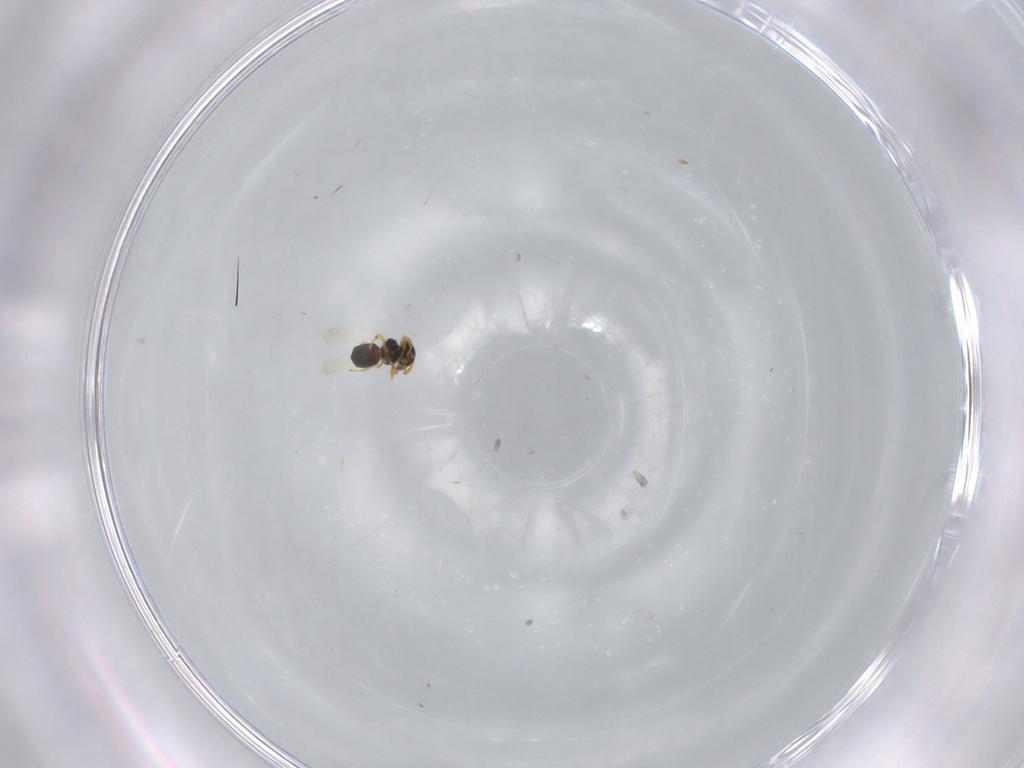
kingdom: Animalia
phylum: Arthropoda
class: Insecta
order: Hymenoptera
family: Platygastridae
